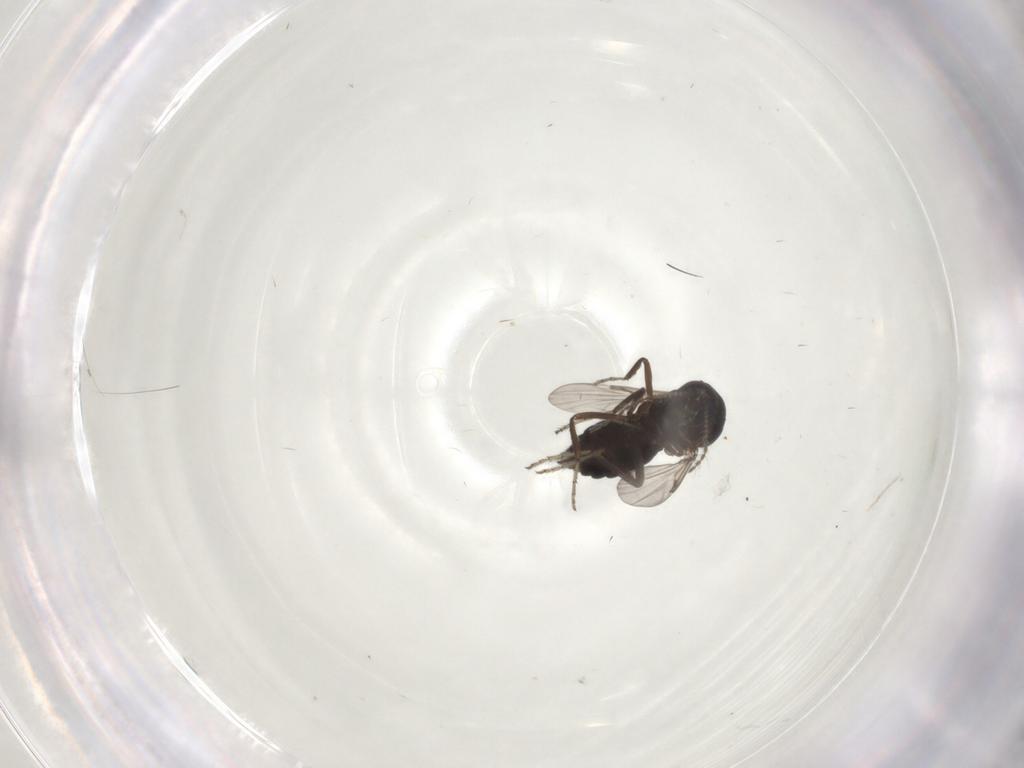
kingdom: Animalia
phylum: Arthropoda
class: Insecta
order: Diptera
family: Ceratopogonidae
